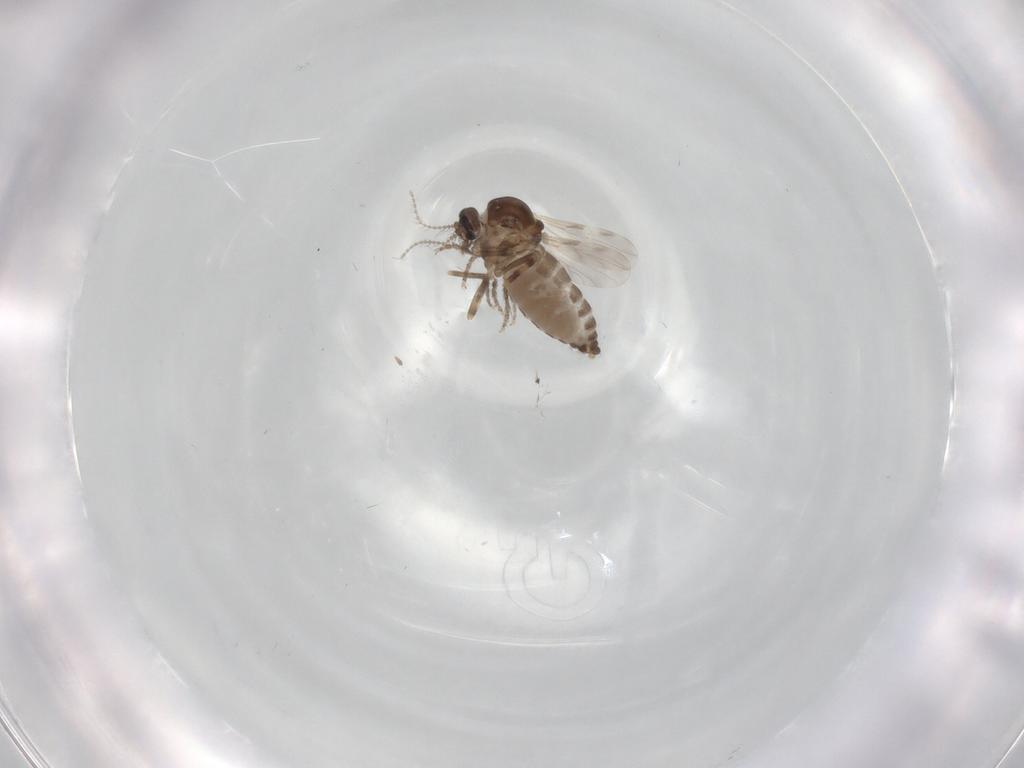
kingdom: Animalia
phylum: Arthropoda
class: Insecta
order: Diptera
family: Ceratopogonidae
